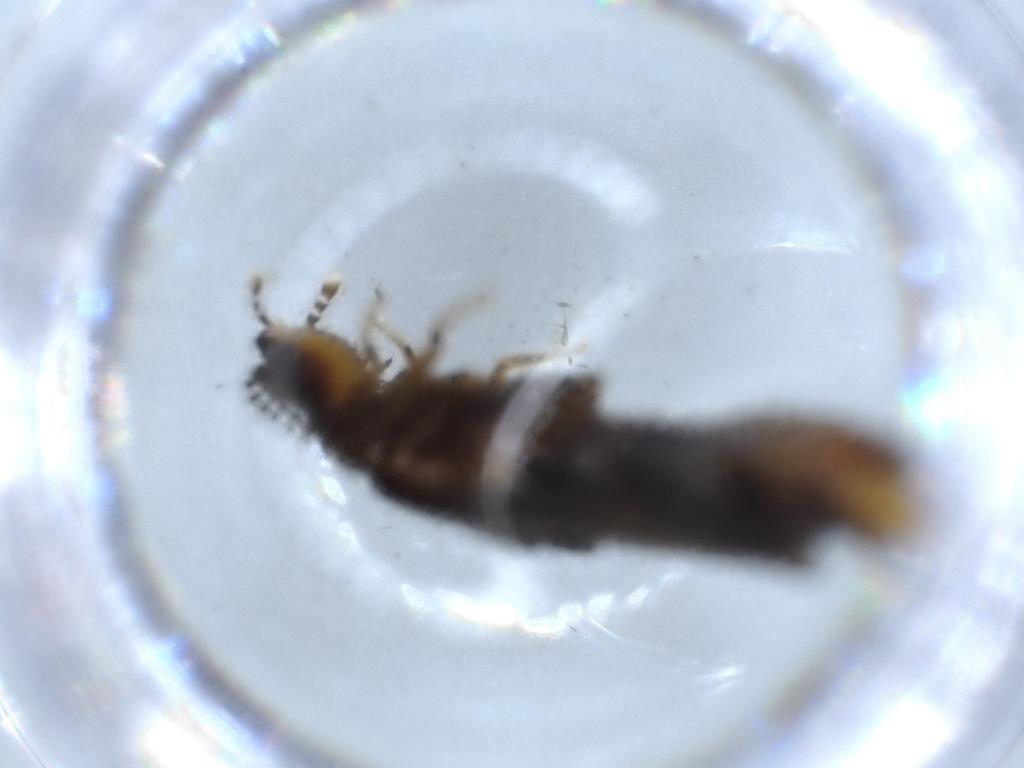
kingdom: Animalia
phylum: Arthropoda
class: Insecta
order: Coleoptera
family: Phengodidae
